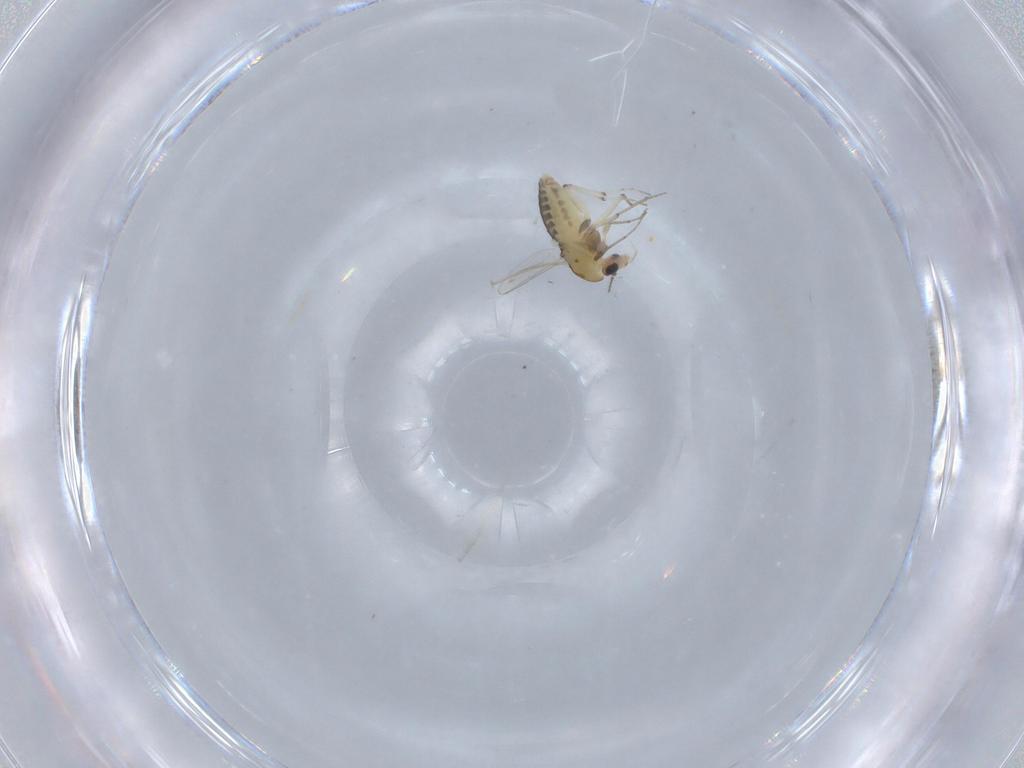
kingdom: Animalia
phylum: Arthropoda
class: Insecta
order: Diptera
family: Chironomidae
